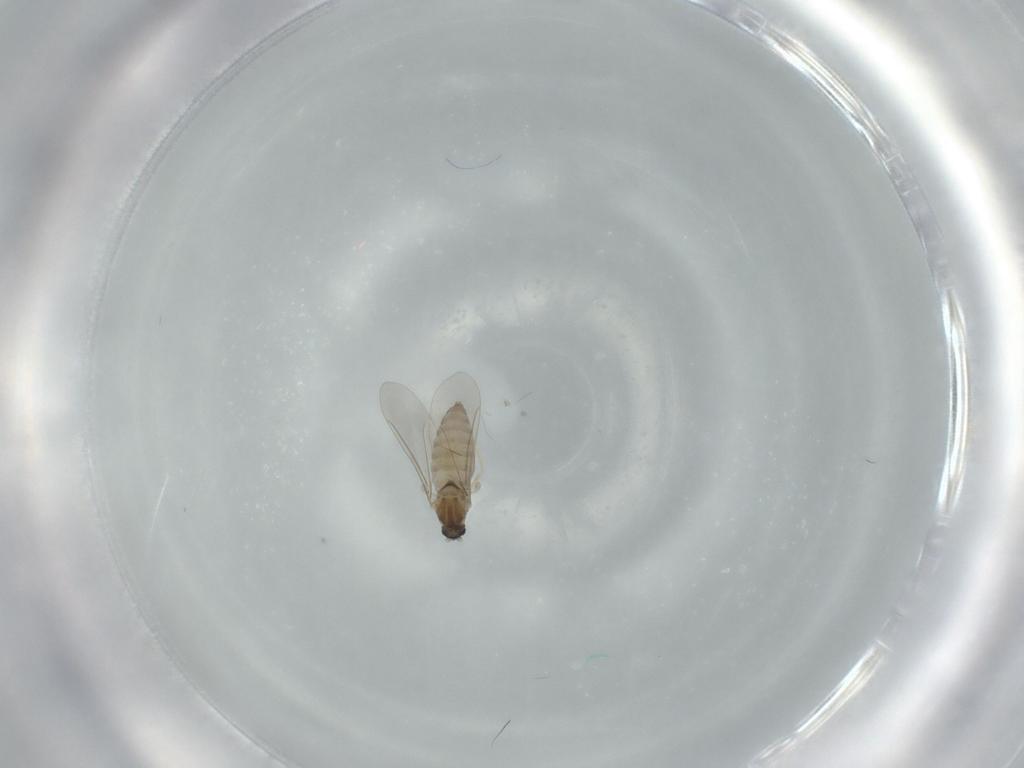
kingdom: Animalia
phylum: Arthropoda
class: Insecta
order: Diptera
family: Cecidomyiidae
